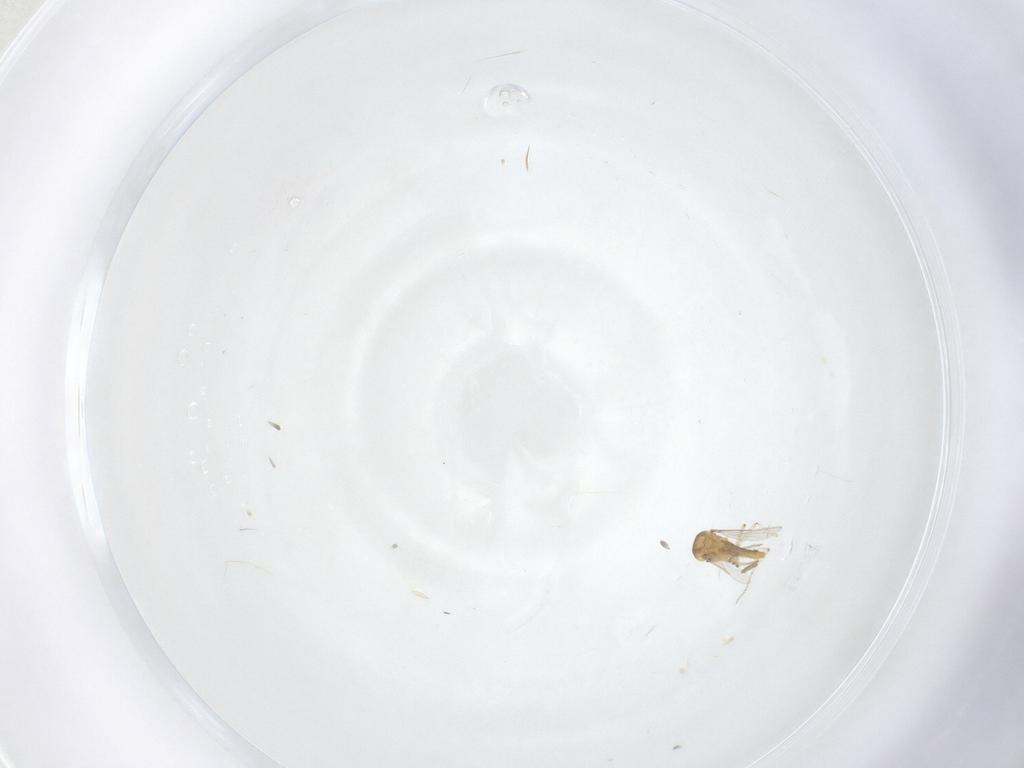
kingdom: Animalia
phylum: Arthropoda
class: Insecta
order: Diptera
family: Ceratopogonidae
